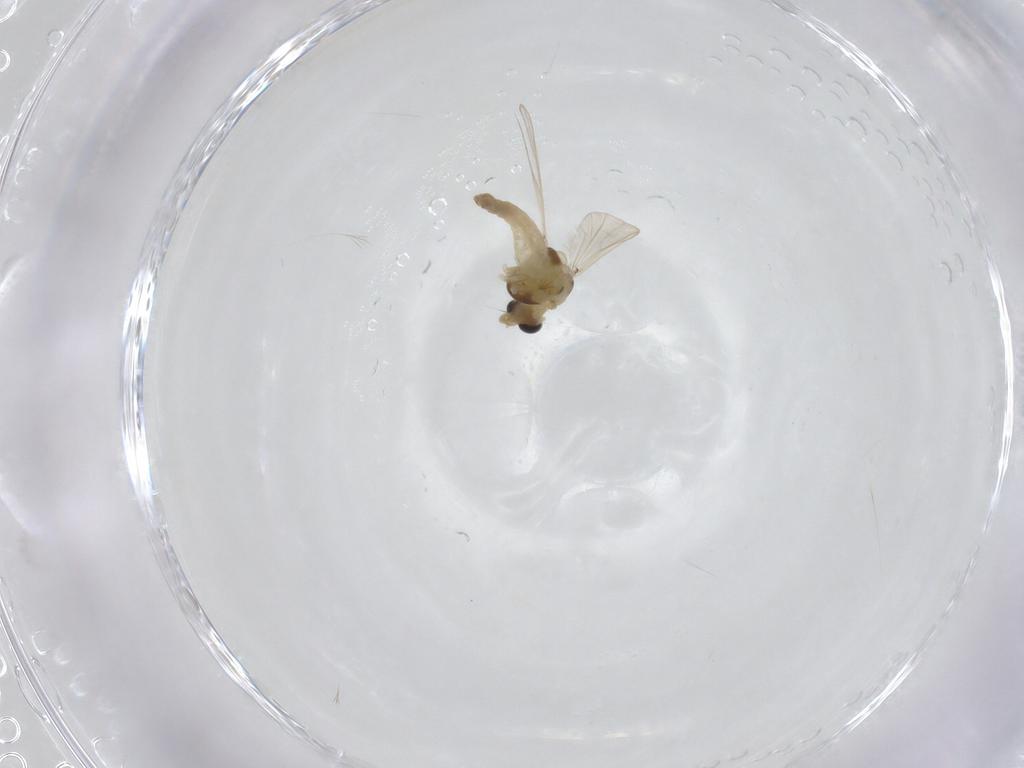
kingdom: Animalia
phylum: Arthropoda
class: Insecta
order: Diptera
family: Chironomidae
